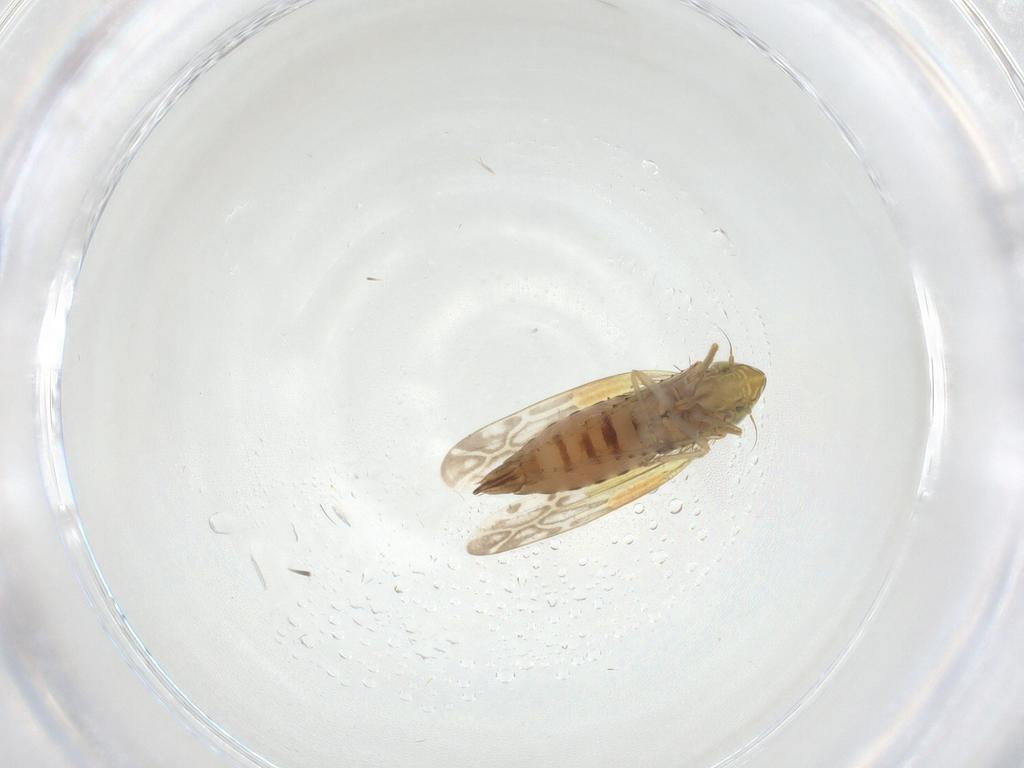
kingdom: Animalia
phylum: Arthropoda
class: Insecta
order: Hemiptera
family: Cicadellidae
